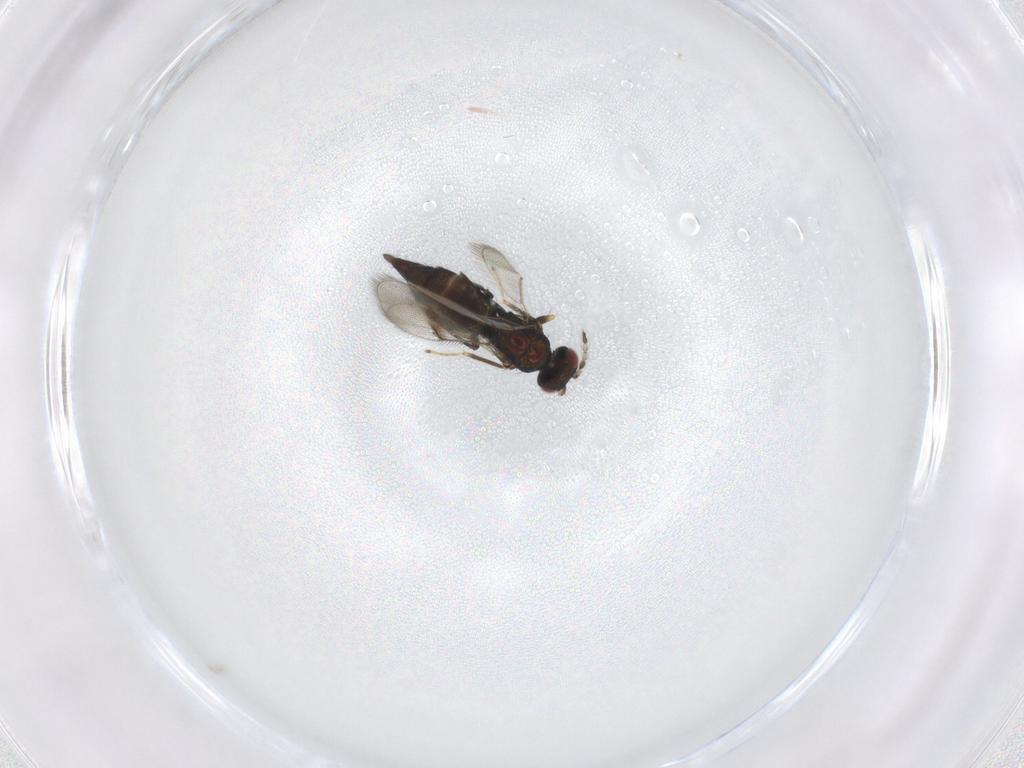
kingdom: Animalia
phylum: Arthropoda
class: Insecta
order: Hymenoptera
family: Eulophidae
